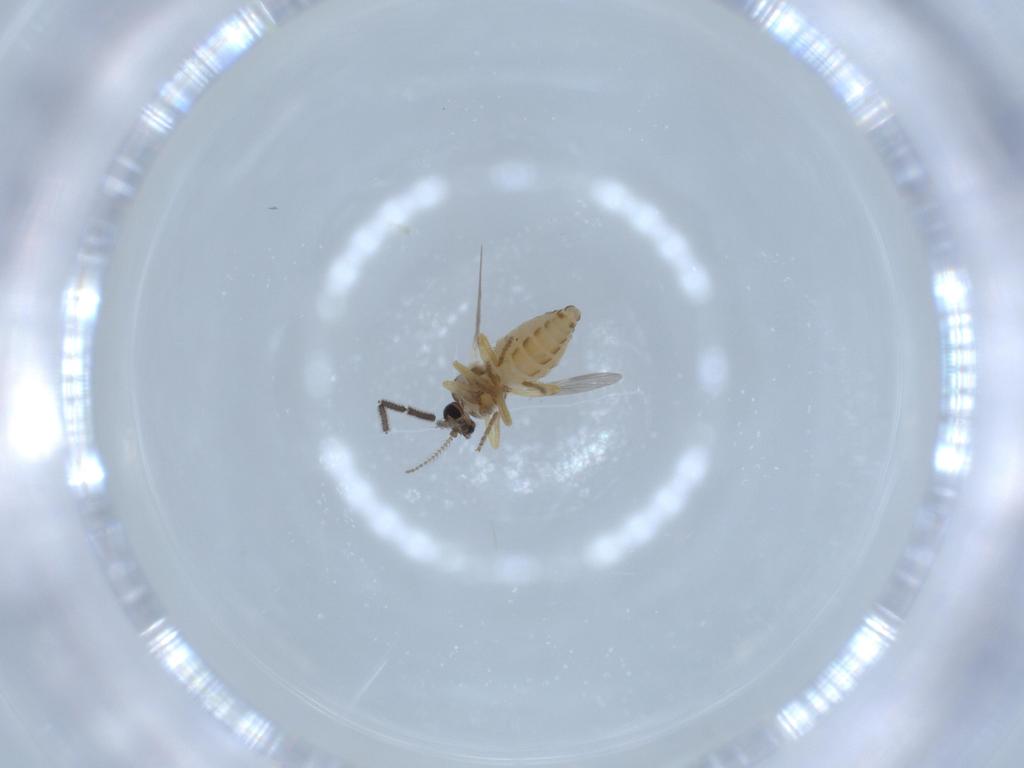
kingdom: Animalia
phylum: Arthropoda
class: Insecta
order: Diptera
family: Ceratopogonidae
